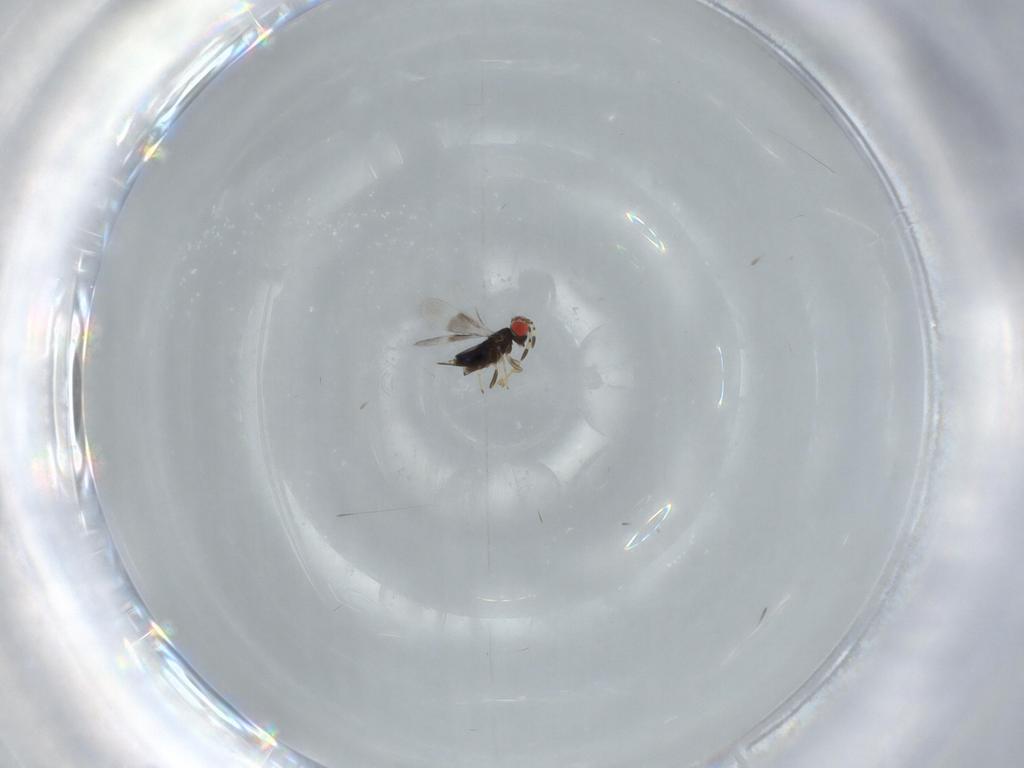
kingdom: Animalia
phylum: Arthropoda
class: Insecta
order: Hymenoptera
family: Azotidae
